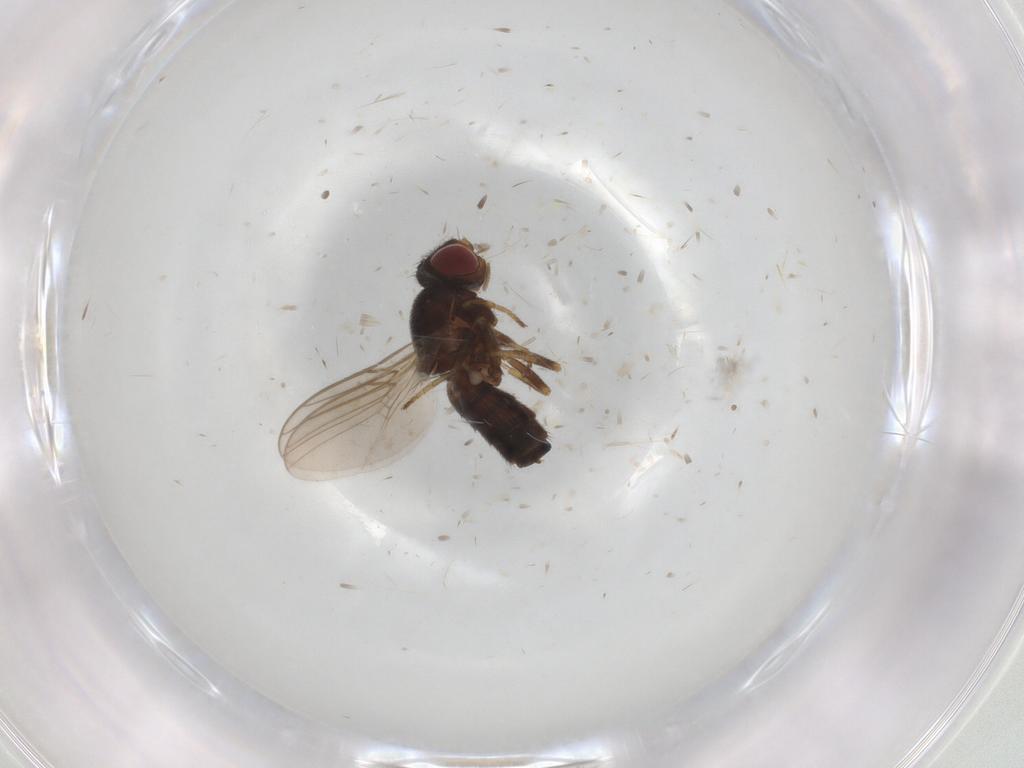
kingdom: Animalia
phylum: Arthropoda
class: Insecta
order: Diptera
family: Chloropidae
